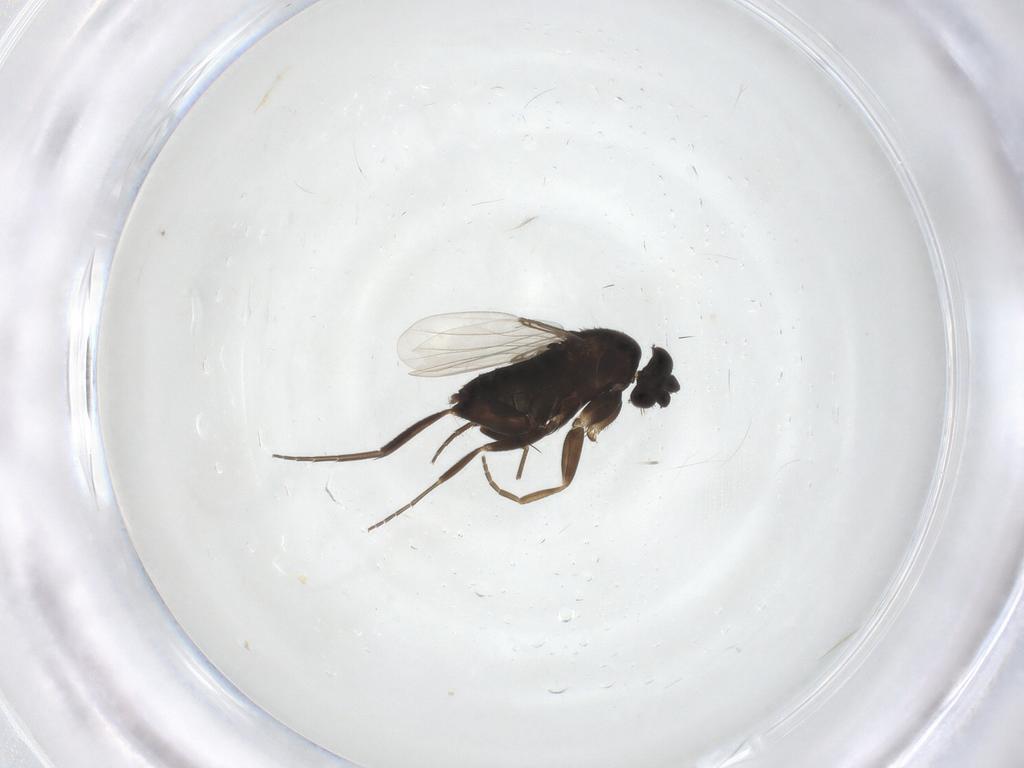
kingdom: Animalia
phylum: Arthropoda
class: Insecta
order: Diptera
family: Phoridae
